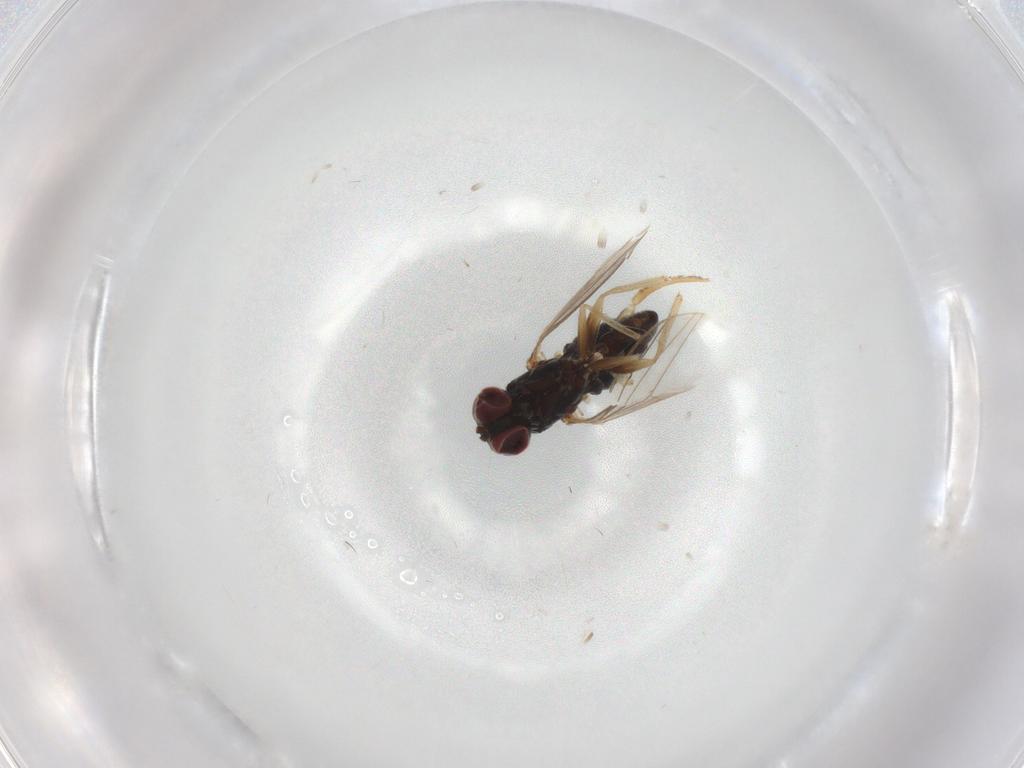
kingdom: Animalia
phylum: Arthropoda
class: Insecta
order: Diptera
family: Dolichopodidae
